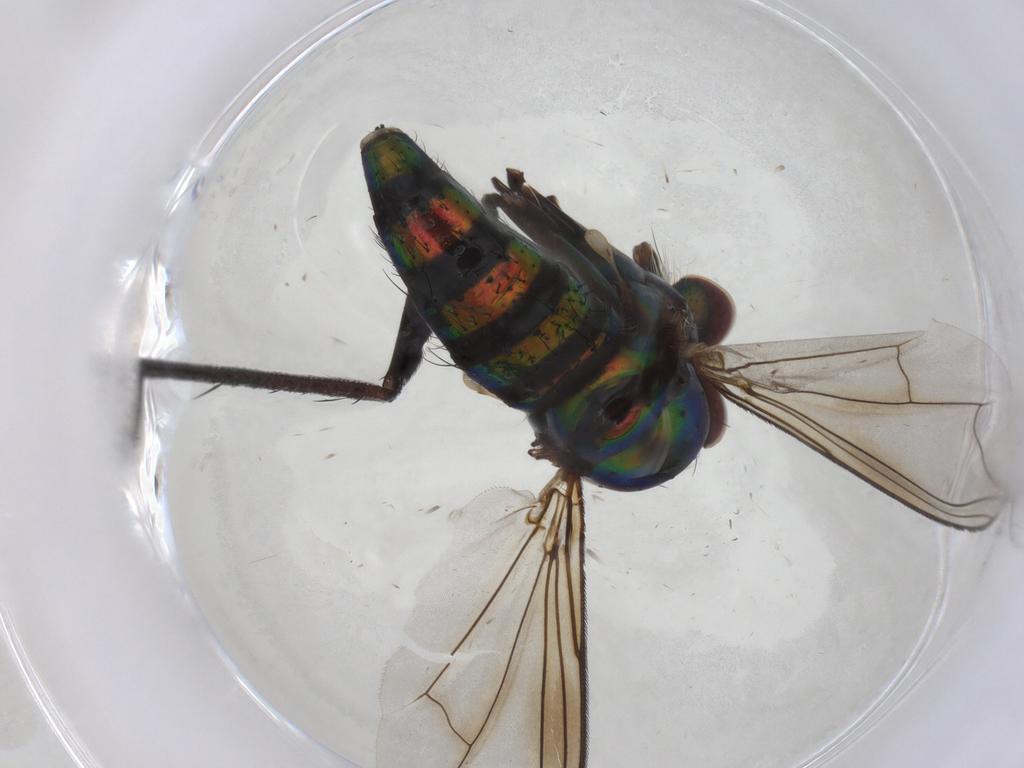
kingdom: Animalia
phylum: Arthropoda
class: Insecta
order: Diptera
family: Dolichopodidae
